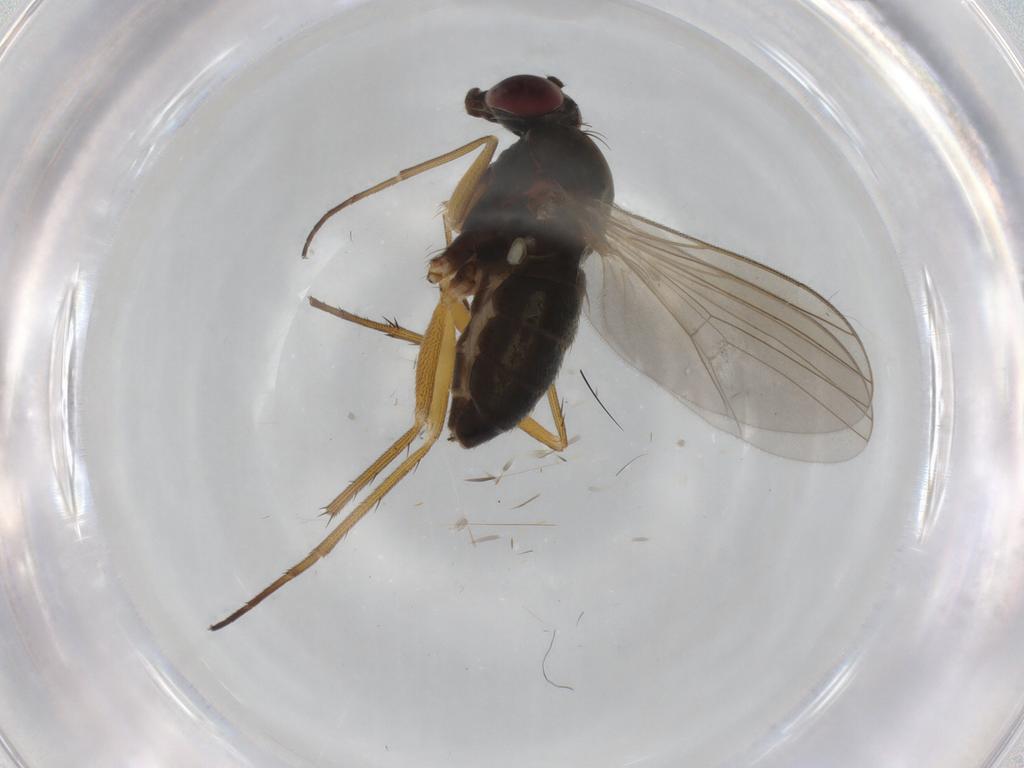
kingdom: Animalia
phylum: Arthropoda
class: Insecta
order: Diptera
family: Dolichopodidae
